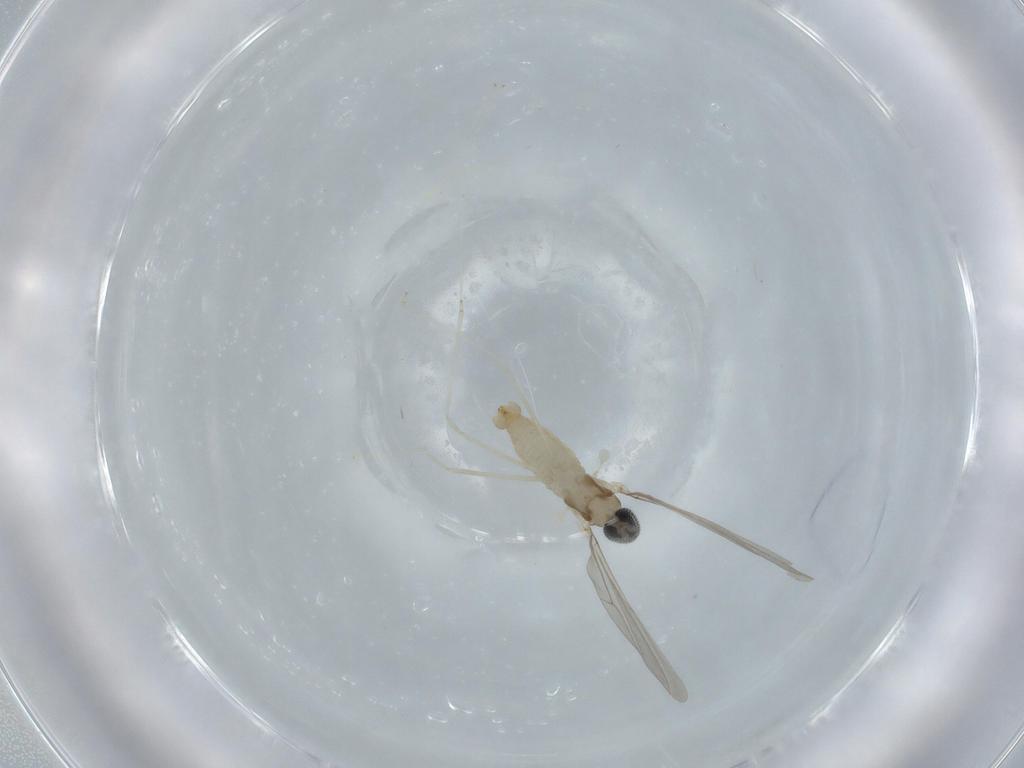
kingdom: Animalia
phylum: Arthropoda
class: Insecta
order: Diptera
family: Cecidomyiidae
